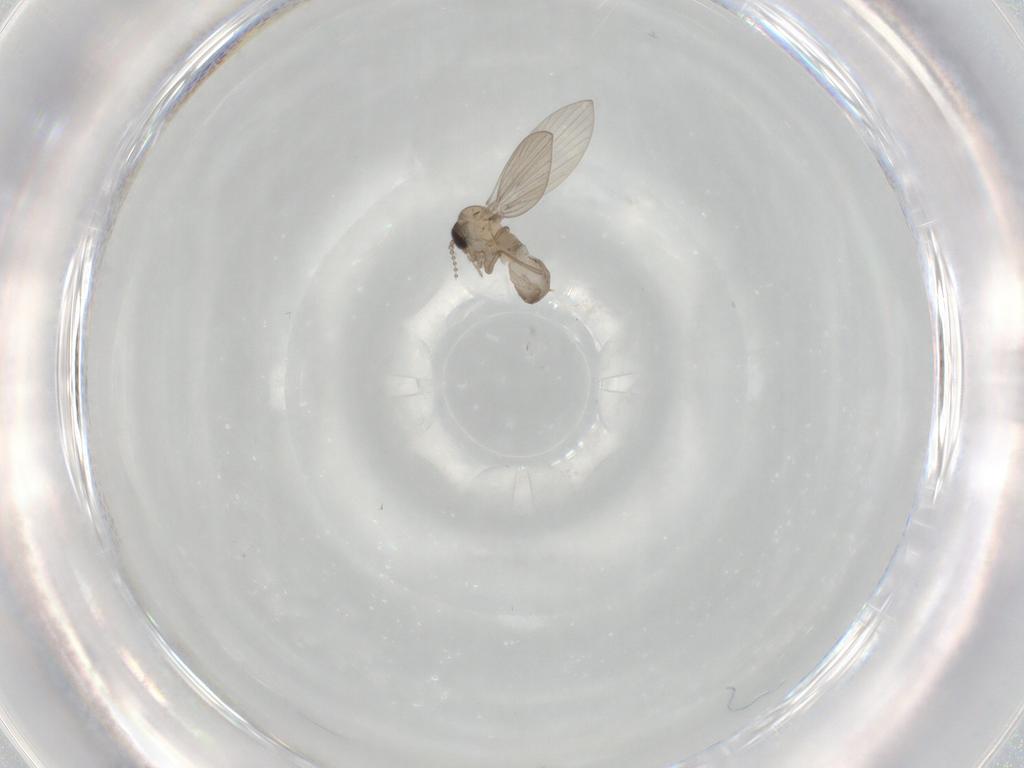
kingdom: Animalia
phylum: Arthropoda
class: Insecta
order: Diptera
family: Psychodidae
